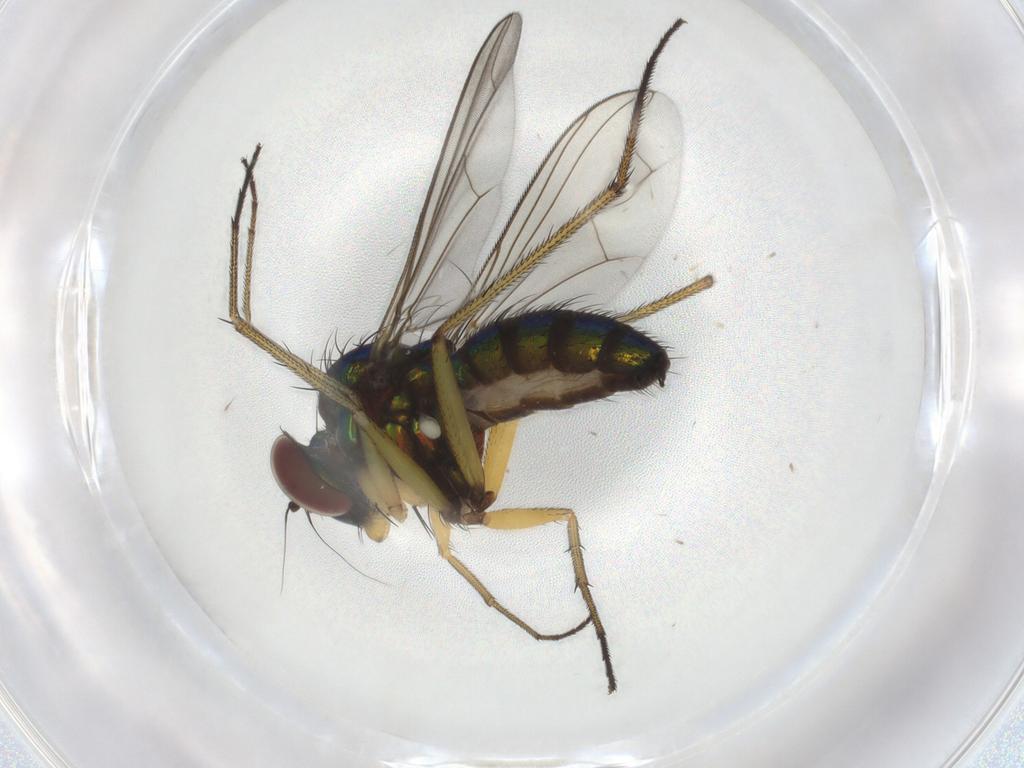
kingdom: Animalia
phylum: Arthropoda
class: Insecta
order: Diptera
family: Dolichopodidae
